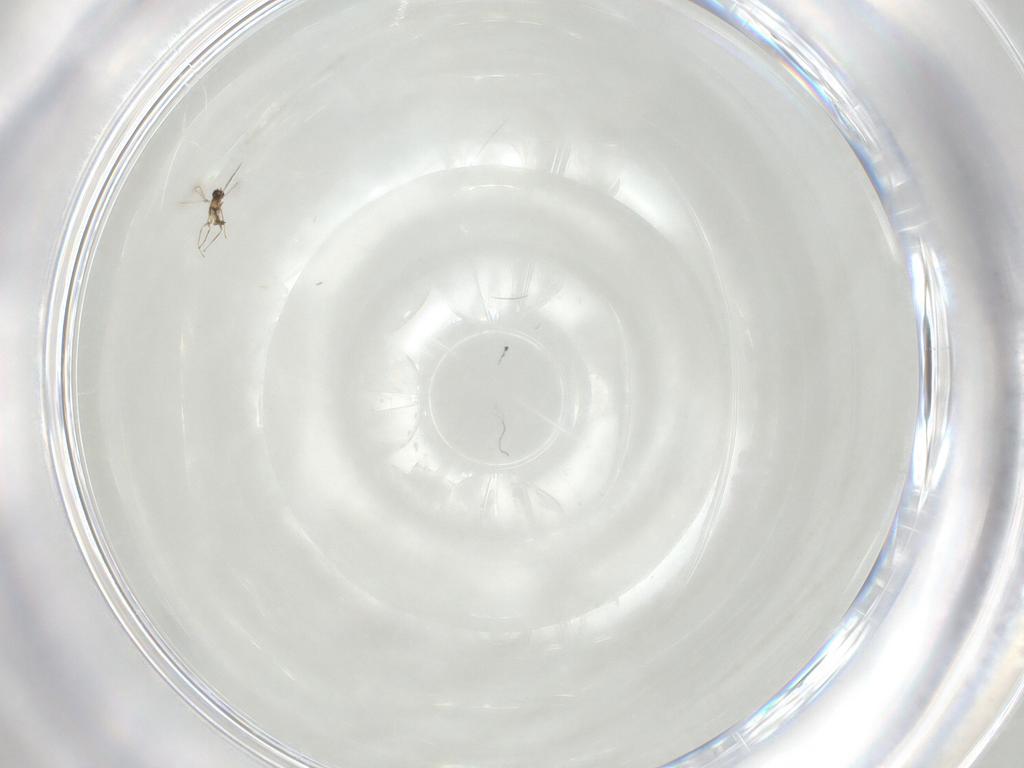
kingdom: Animalia
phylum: Arthropoda
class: Insecta
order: Hymenoptera
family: Mymaridae
